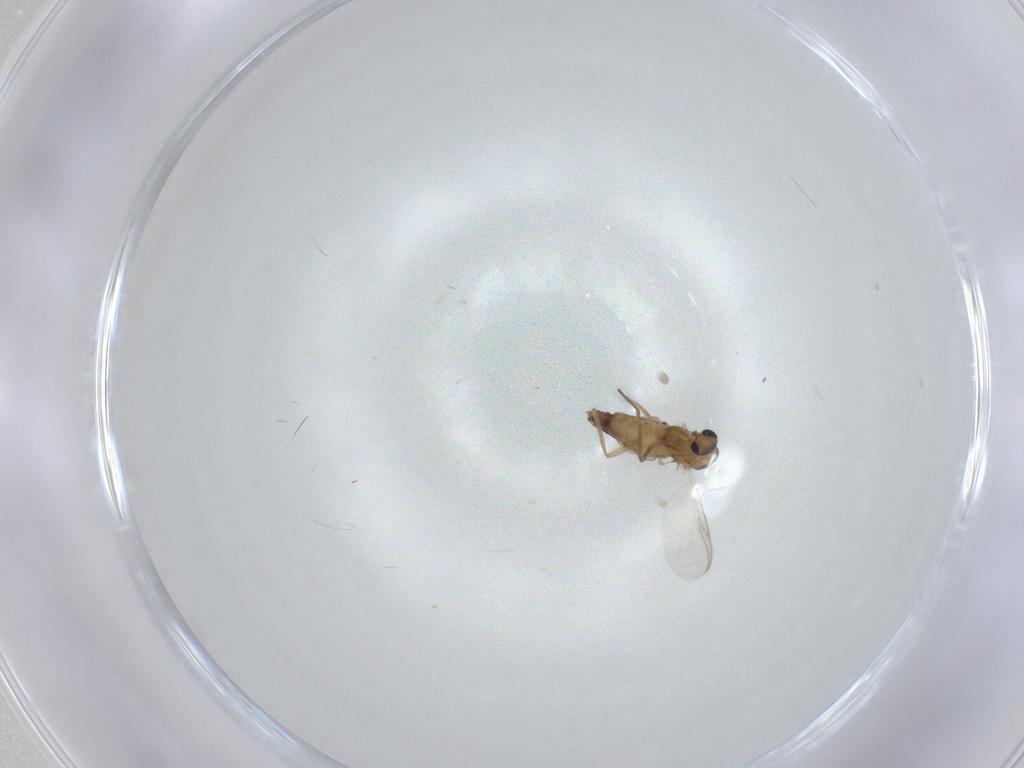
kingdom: Animalia
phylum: Arthropoda
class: Insecta
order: Diptera
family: Chironomidae
